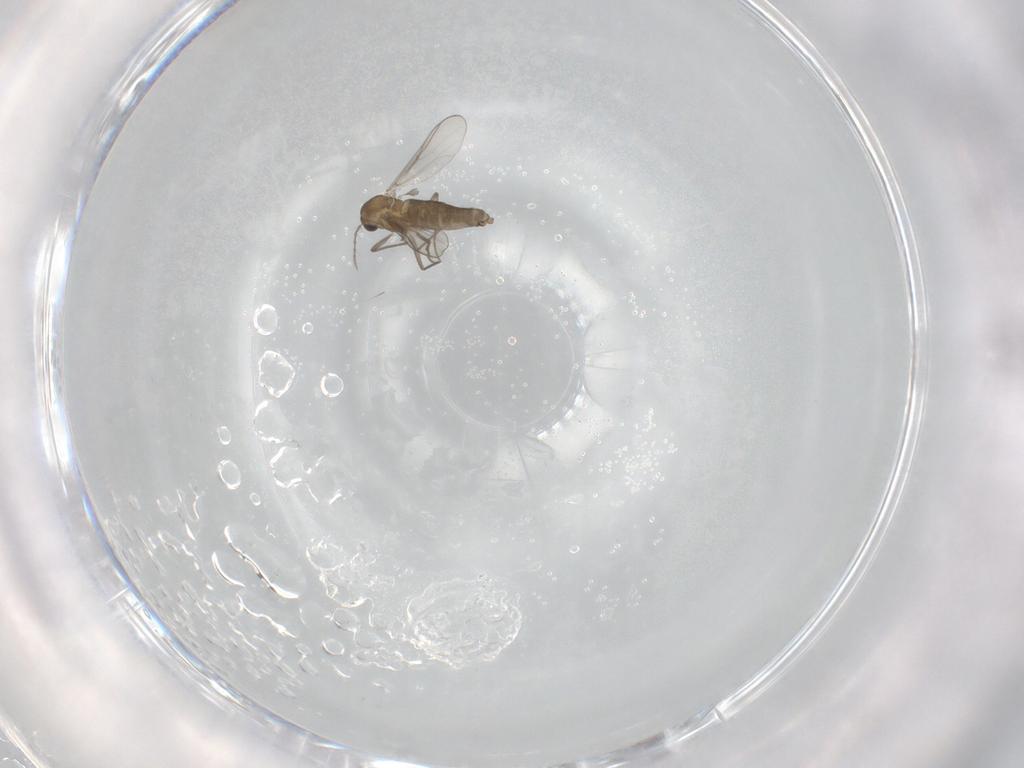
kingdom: Animalia
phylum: Arthropoda
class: Insecta
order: Diptera
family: Chironomidae
